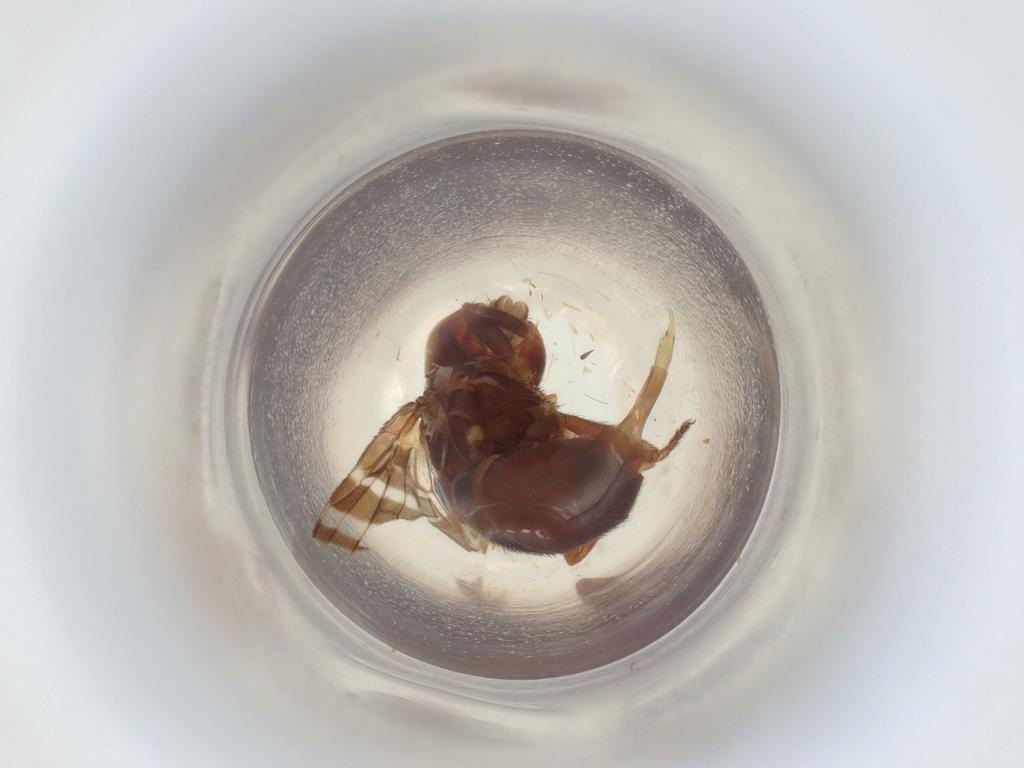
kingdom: Animalia
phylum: Arthropoda
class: Insecta
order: Diptera
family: Platystomatidae
